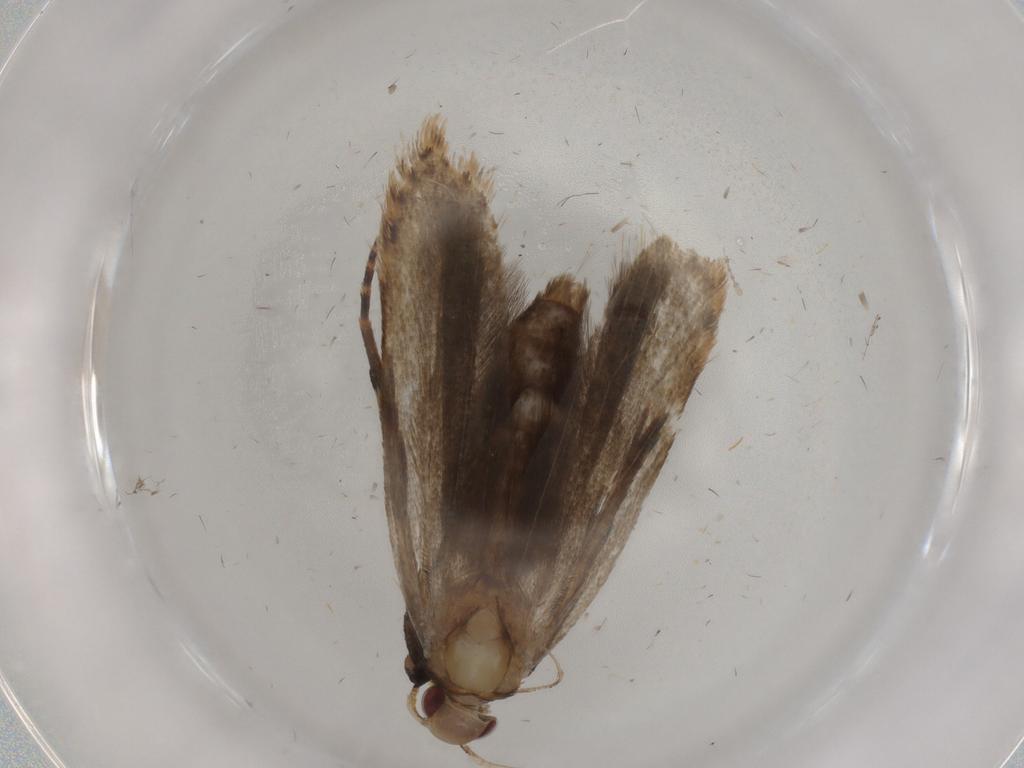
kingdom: Animalia
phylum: Arthropoda
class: Insecta
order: Lepidoptera
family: Gelechiidae
